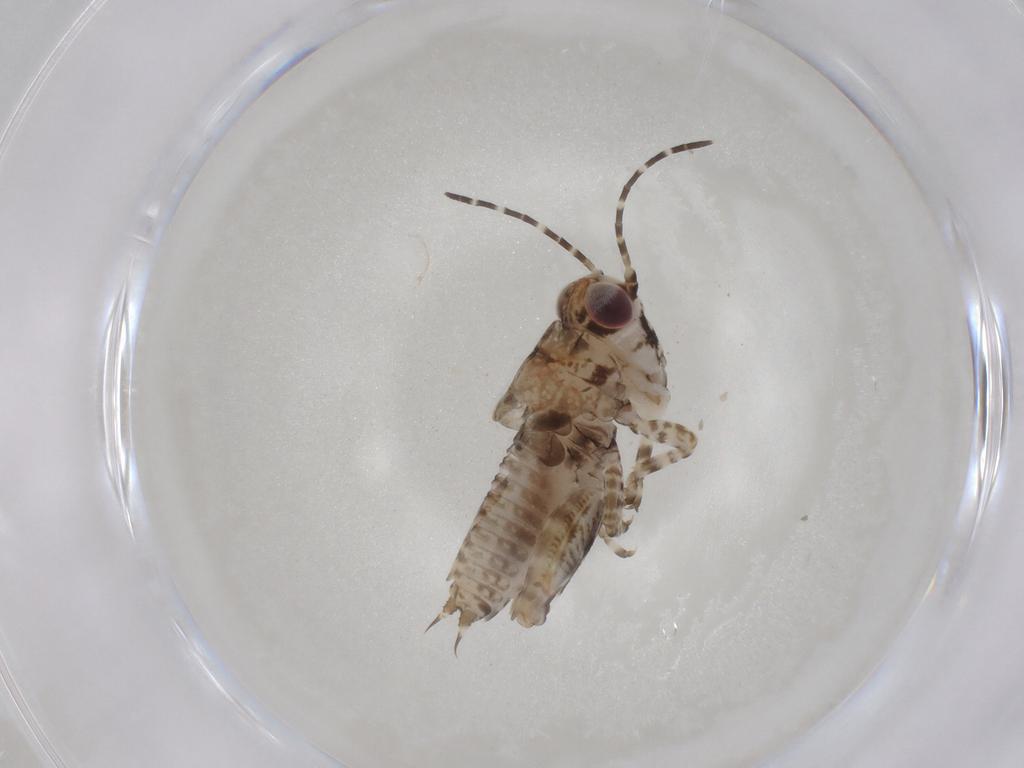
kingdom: Animalia
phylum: Arthropoda
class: Insecta
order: Orthoptera
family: Tetrigidae
